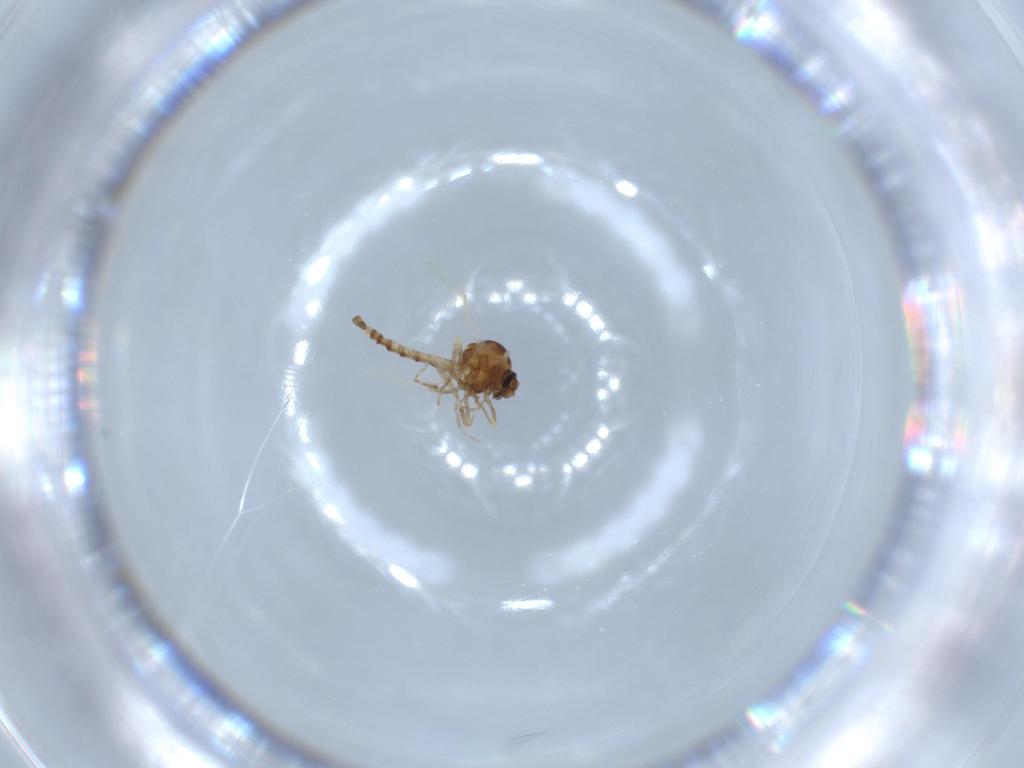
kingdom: Animalia
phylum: Arthropoda
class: Insecta
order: Diptera
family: Ceratopogonidae
